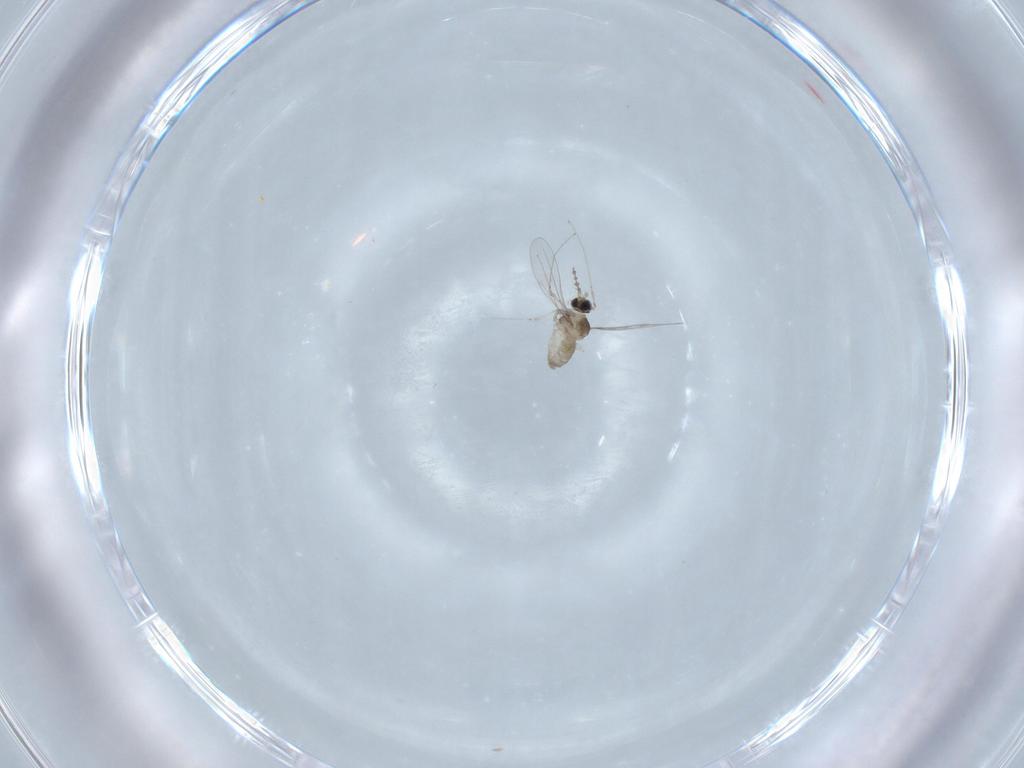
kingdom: Animalia
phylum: Arthropoda
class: Insecta
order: Diptera
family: Cecidomyiidae
